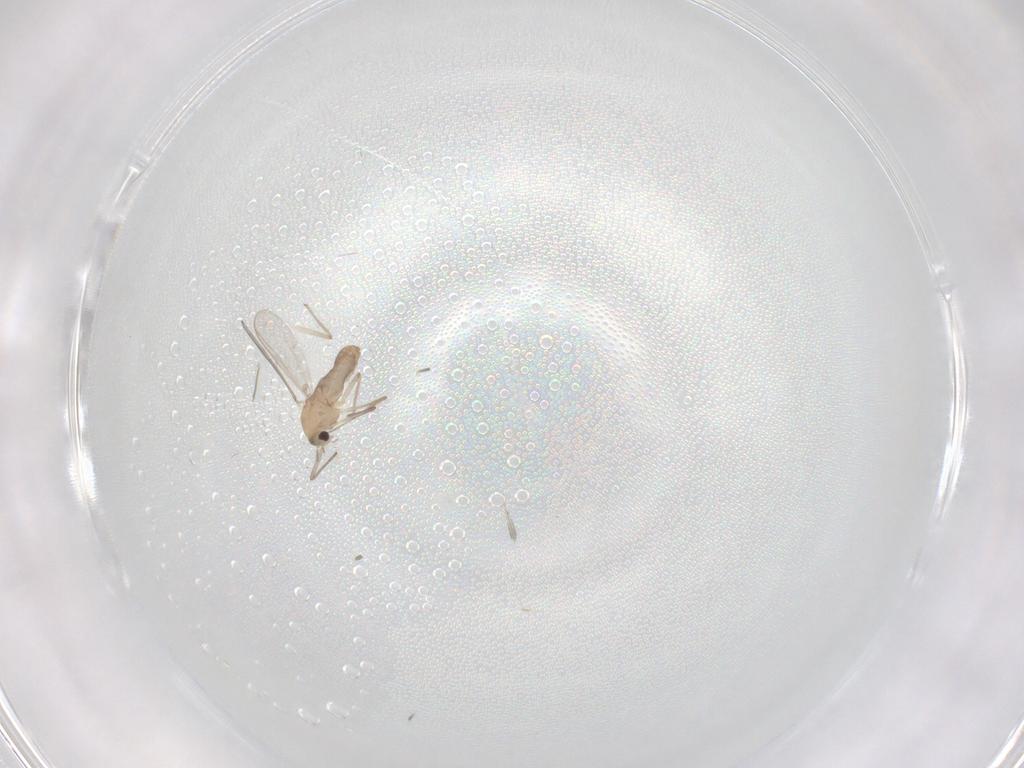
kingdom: Animalia
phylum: Arthropoda
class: Insecta
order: Diptera
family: Chironomidae
